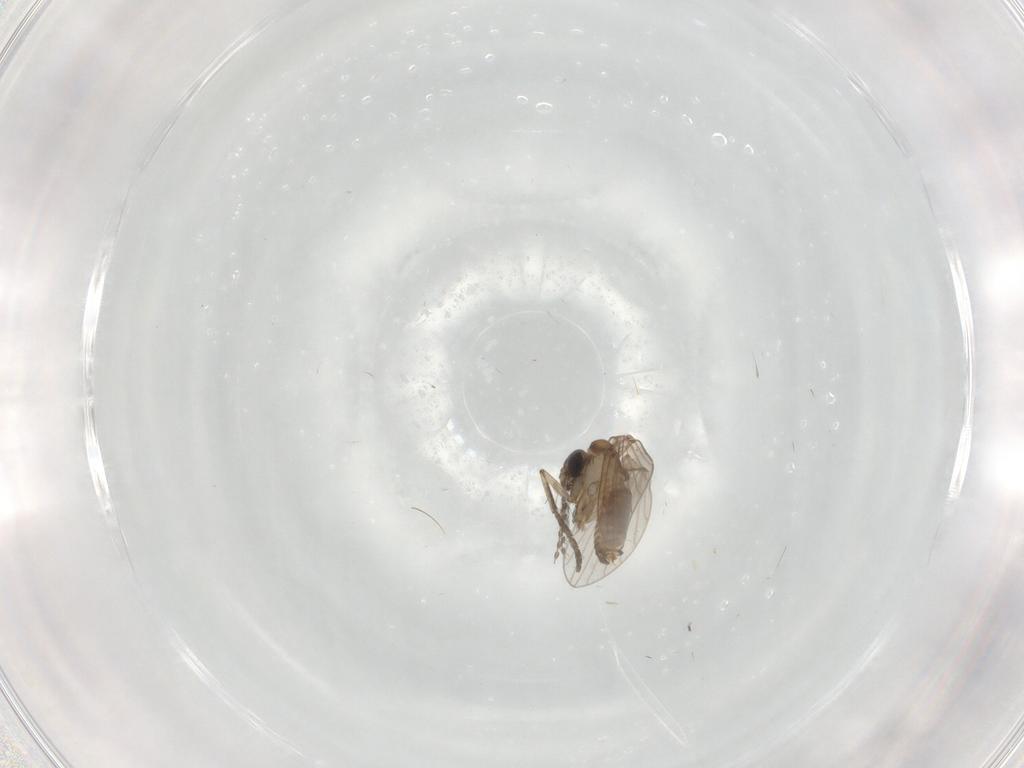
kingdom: Animalia
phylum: Arthropoda
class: Insecta
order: Diptera
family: Psychodidae
